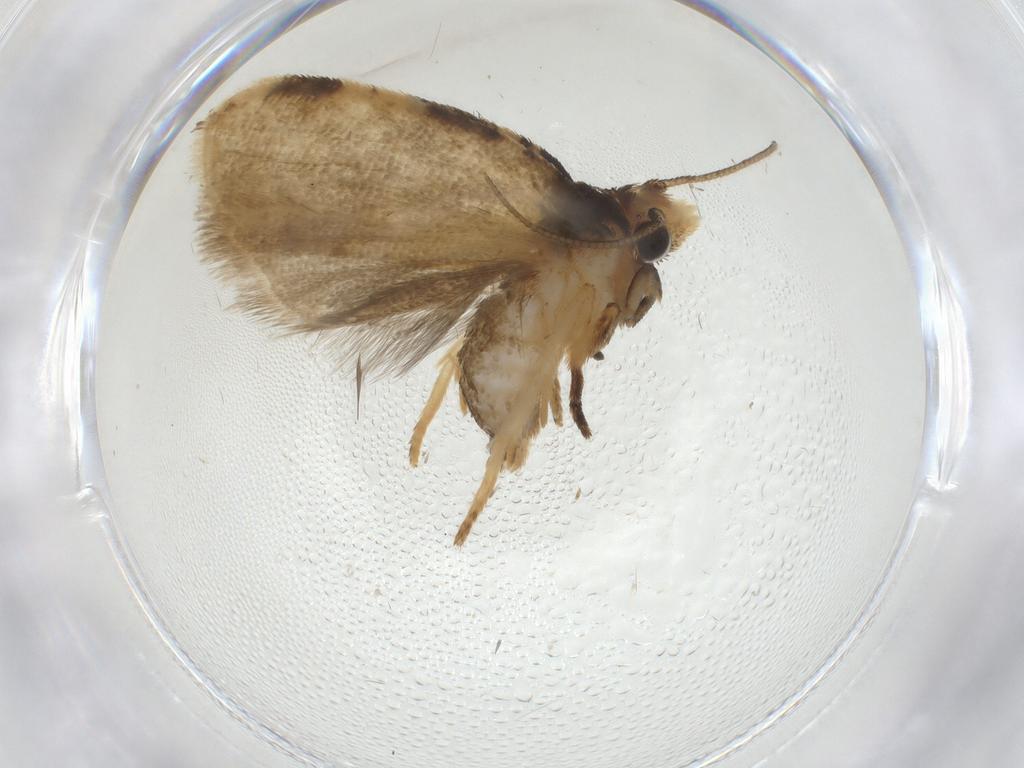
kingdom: Animalia
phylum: Arthropoda
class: Insecta
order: Lepidoptera
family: Tortricidae
